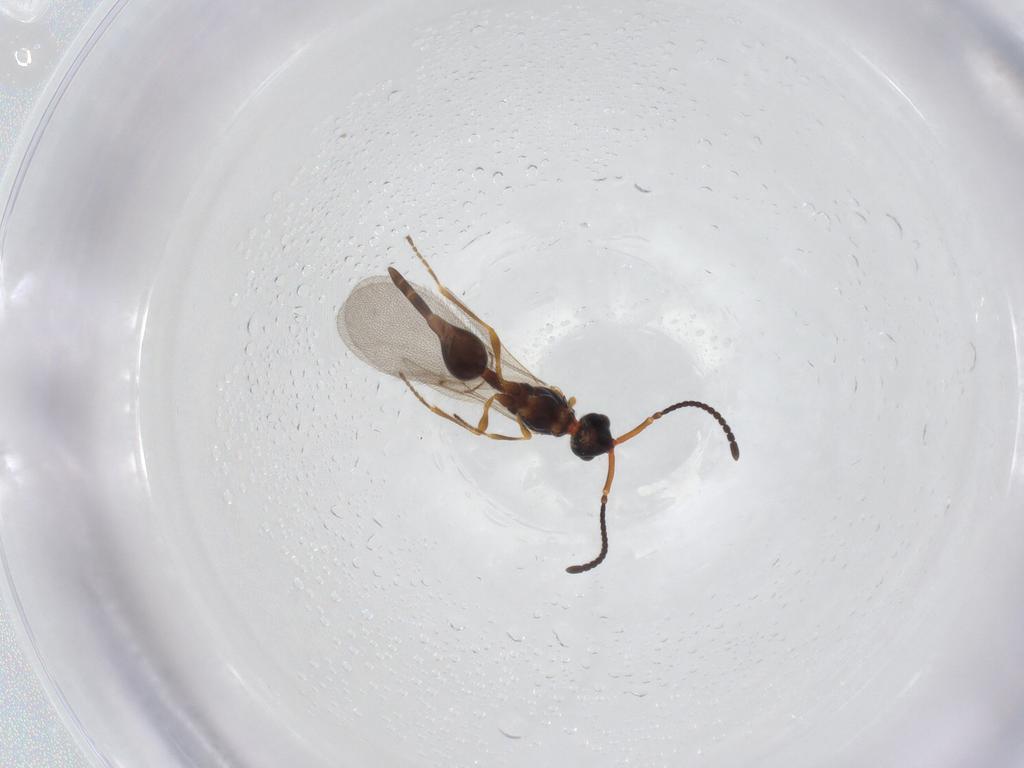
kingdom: Animalia
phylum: Arthropoda
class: Insecta
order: Hymenoptera
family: Diapriidae
